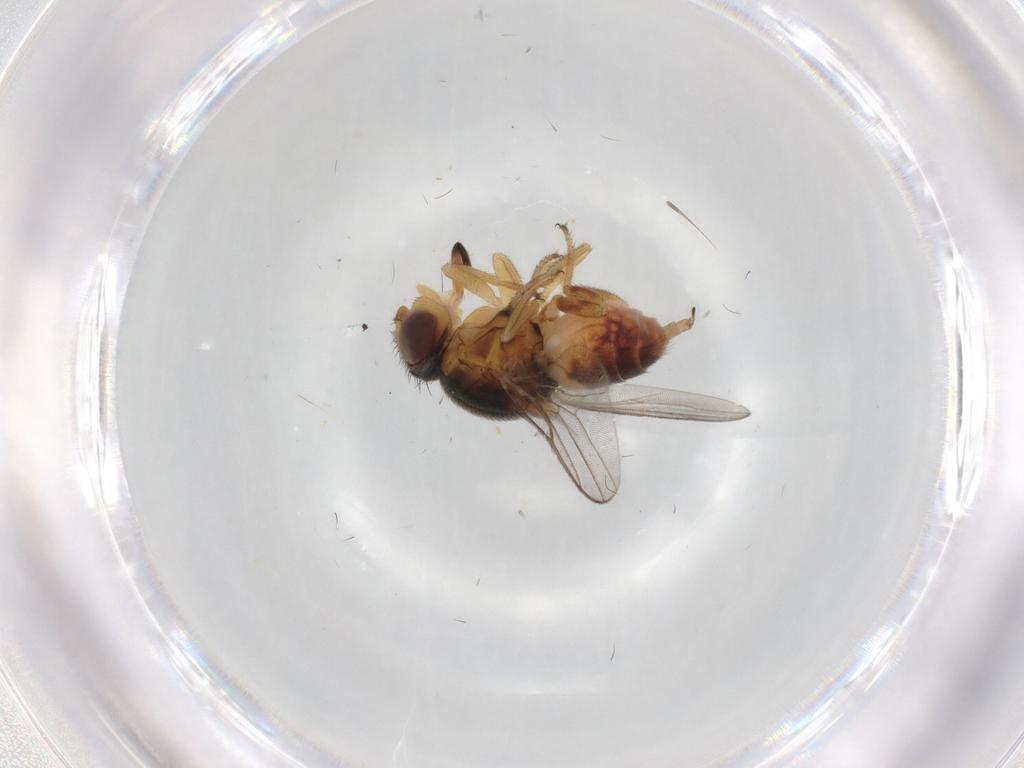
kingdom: Animalia
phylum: Arthropoda
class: Insecta
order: Diptera
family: Chloropidae
